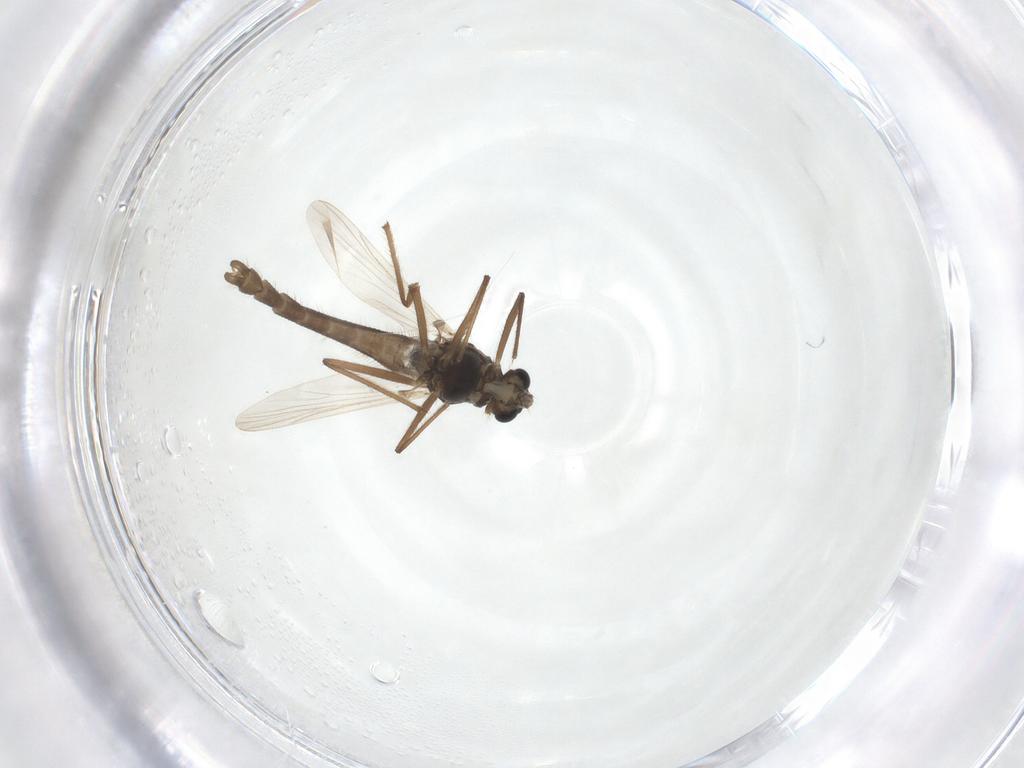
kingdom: Animalia
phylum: Arthropoda
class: Insecta
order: Diptera
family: Chironomidae
